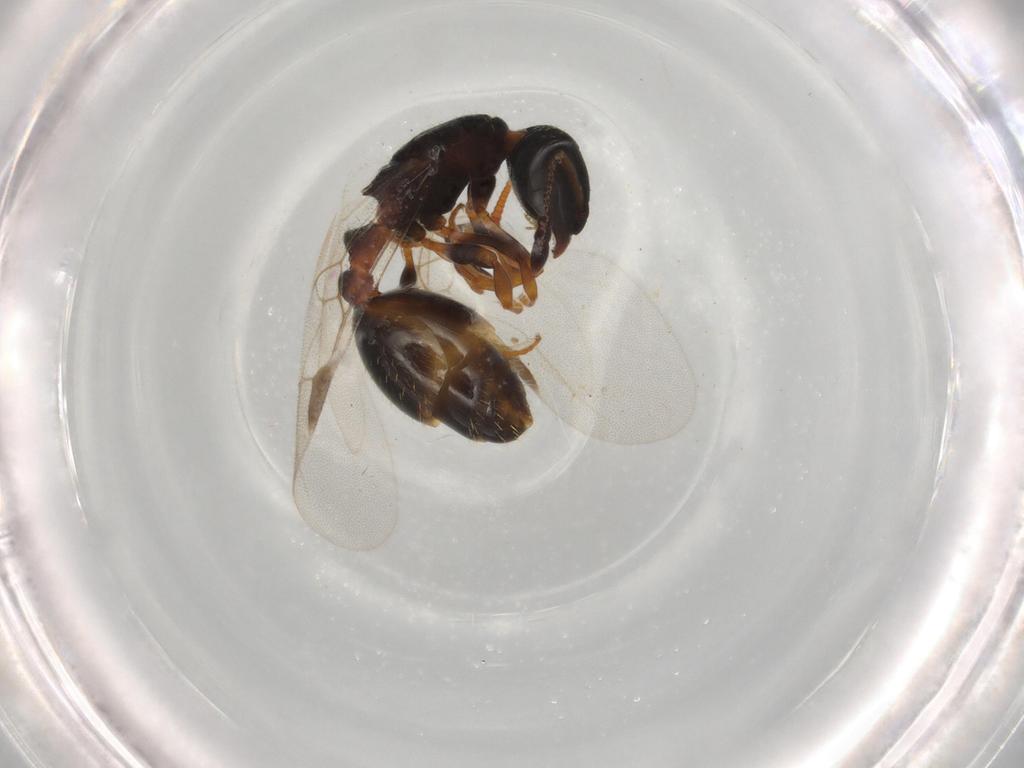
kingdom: Animalia
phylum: Arthropoda
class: Insecta
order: Hymenoptera
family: Formicidae
